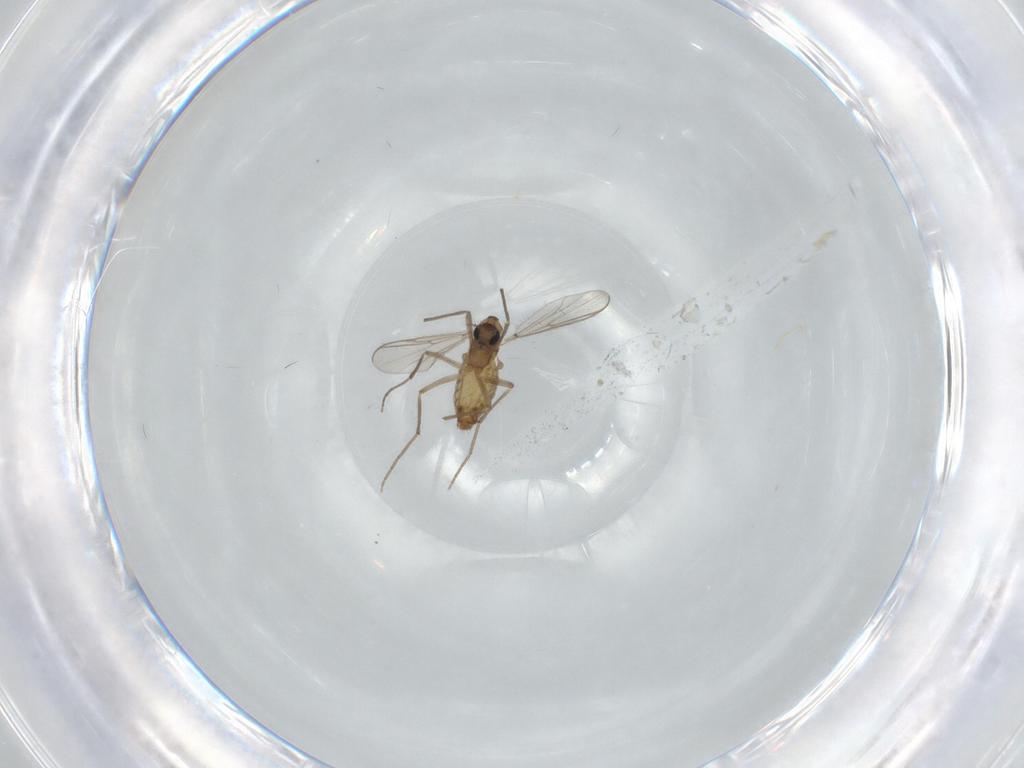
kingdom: Animalia
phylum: Arthropoda
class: Insecta
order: Diptera
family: Chironomidae
